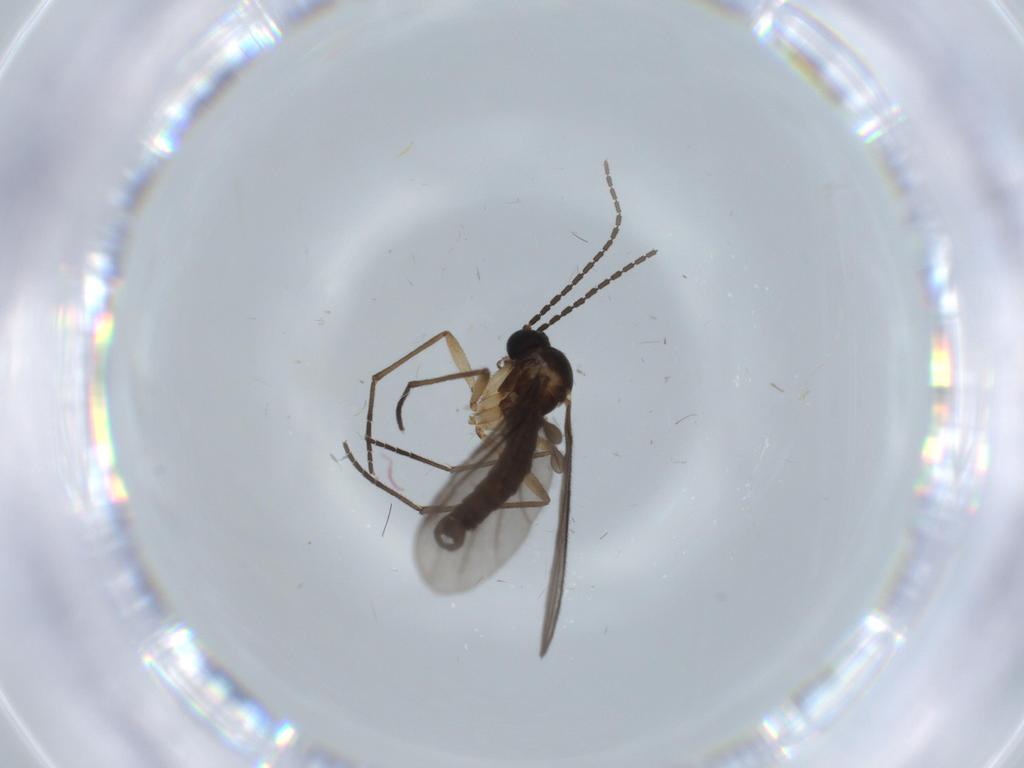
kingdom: Animalia
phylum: Arthropoda
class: Insecta
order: Diptera
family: Sciaridae
